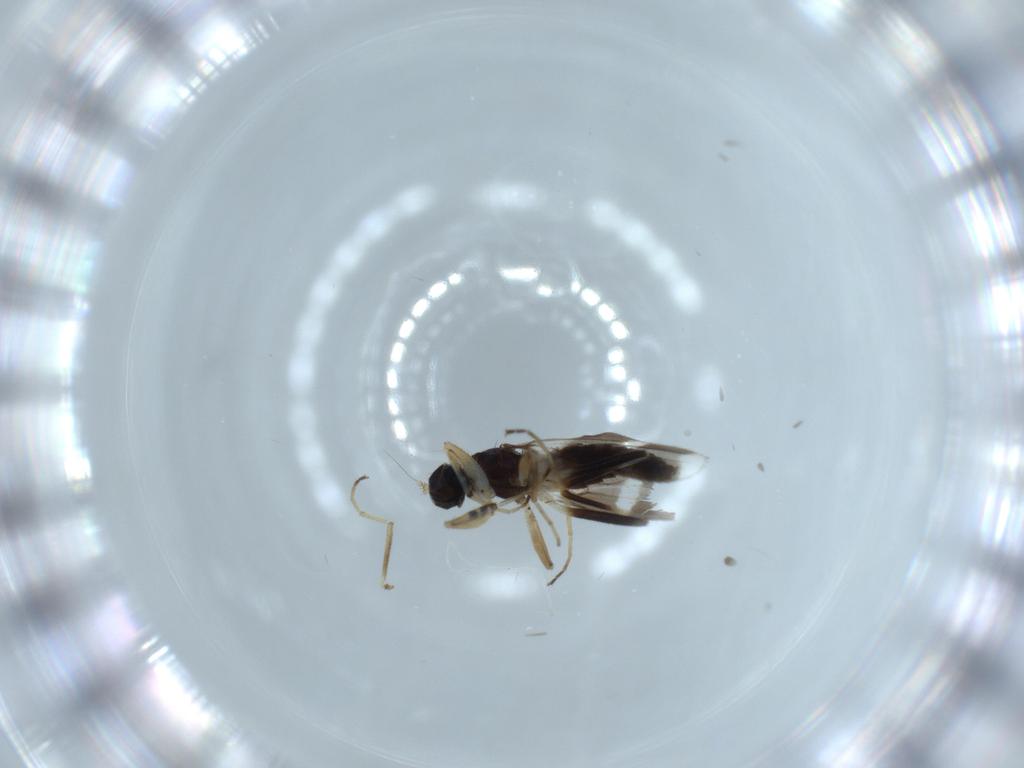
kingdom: Animalia
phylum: Arthropoda
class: Insecta
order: Diptera
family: Hybotidae
